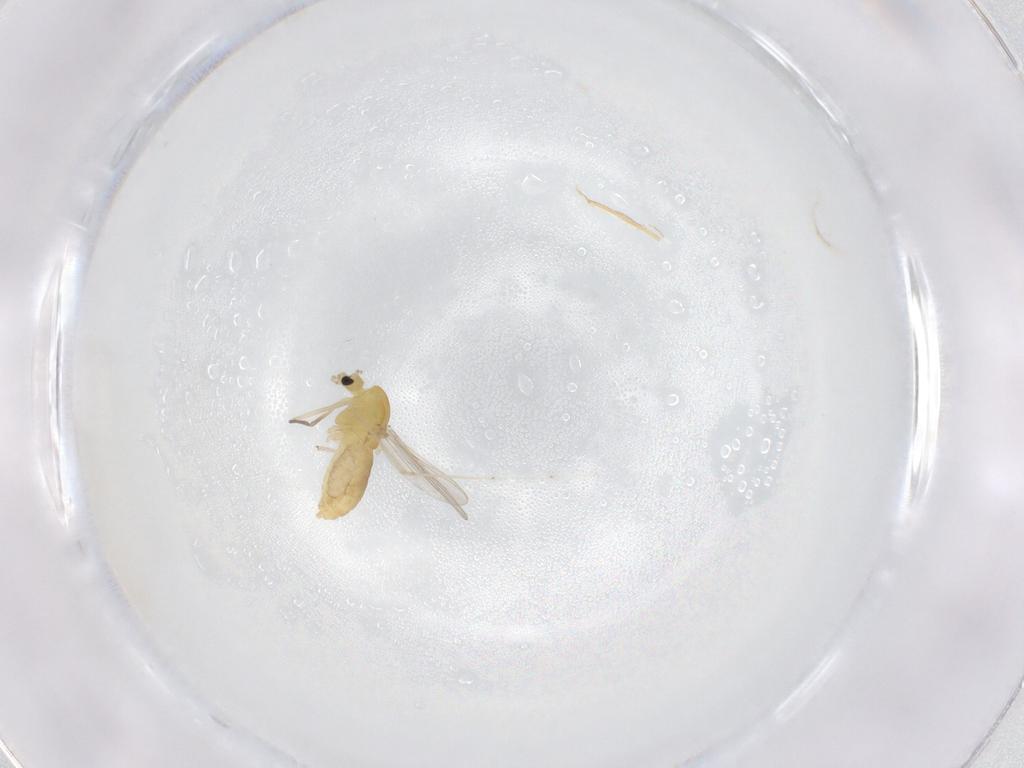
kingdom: Animalia
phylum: Arthropoda
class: Insecta
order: Diptera
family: Chironomidae
